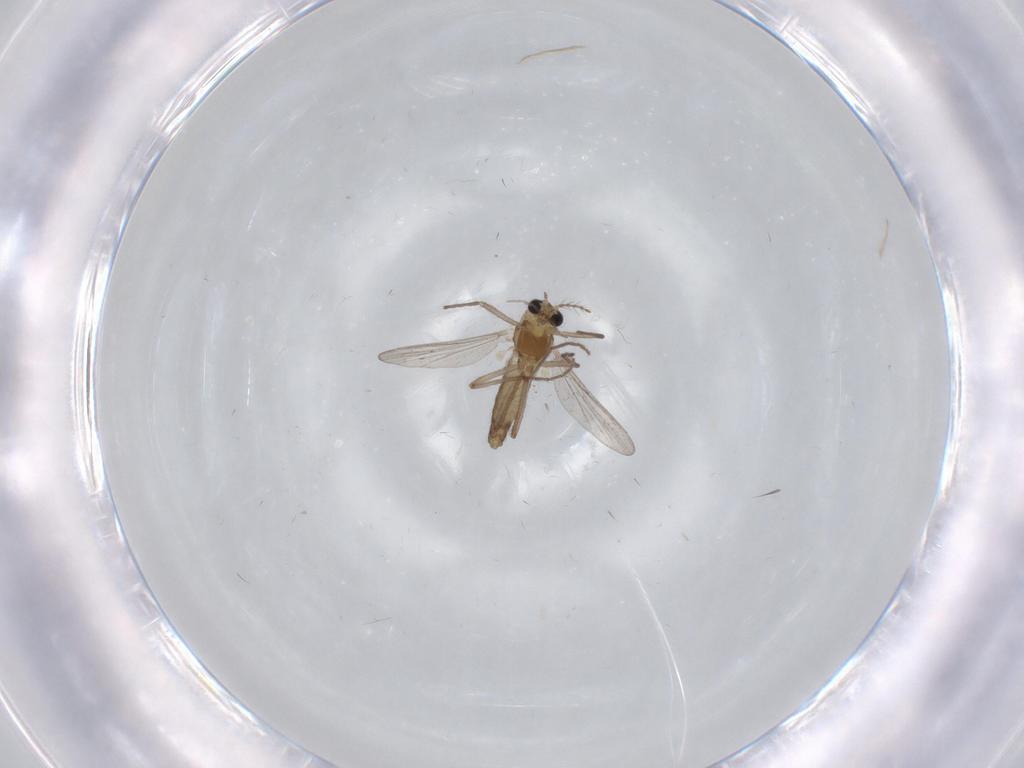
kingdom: Animalia
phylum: Arthropoda
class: Insecta
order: Diptera
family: Chironomidae
